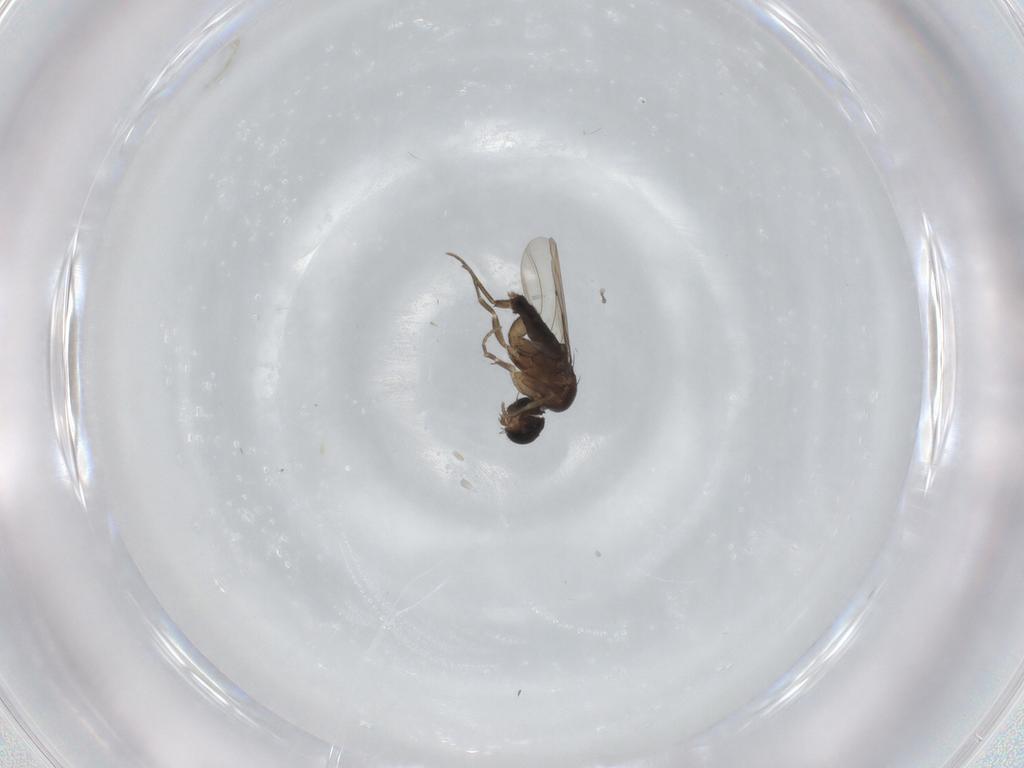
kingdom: Animalia
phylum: Arthropoda
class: Insecta
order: Diptera
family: Phoridae
